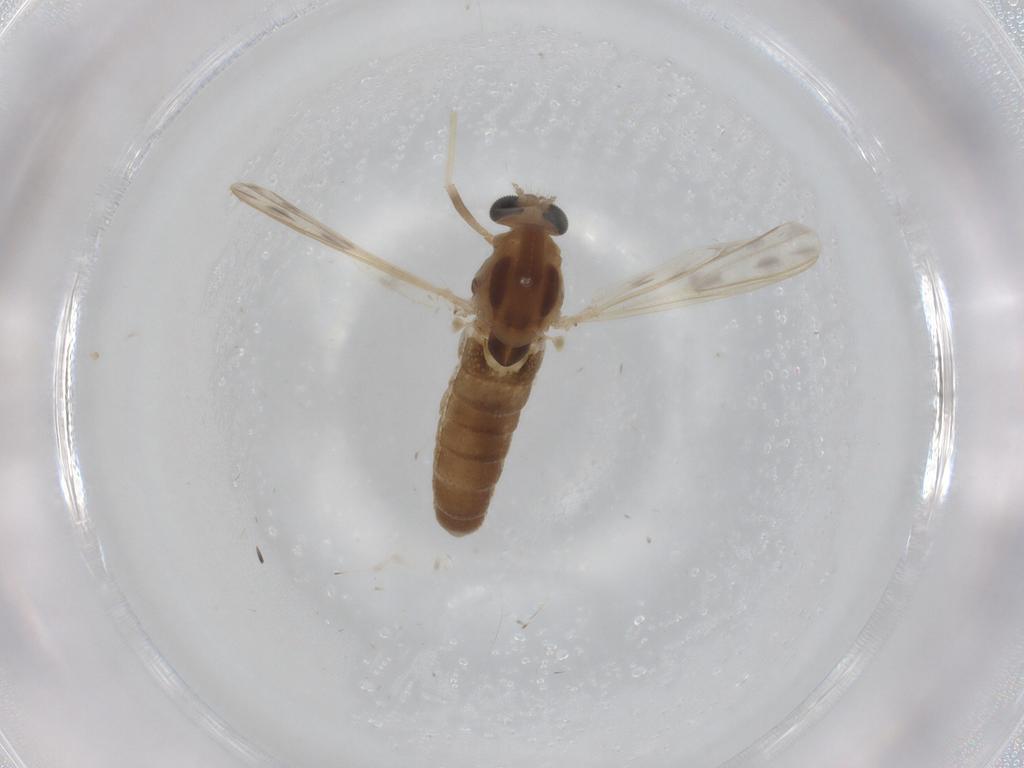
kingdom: Animalia
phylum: Arthropoda
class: Insecta
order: Diptera
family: Chironomidae
